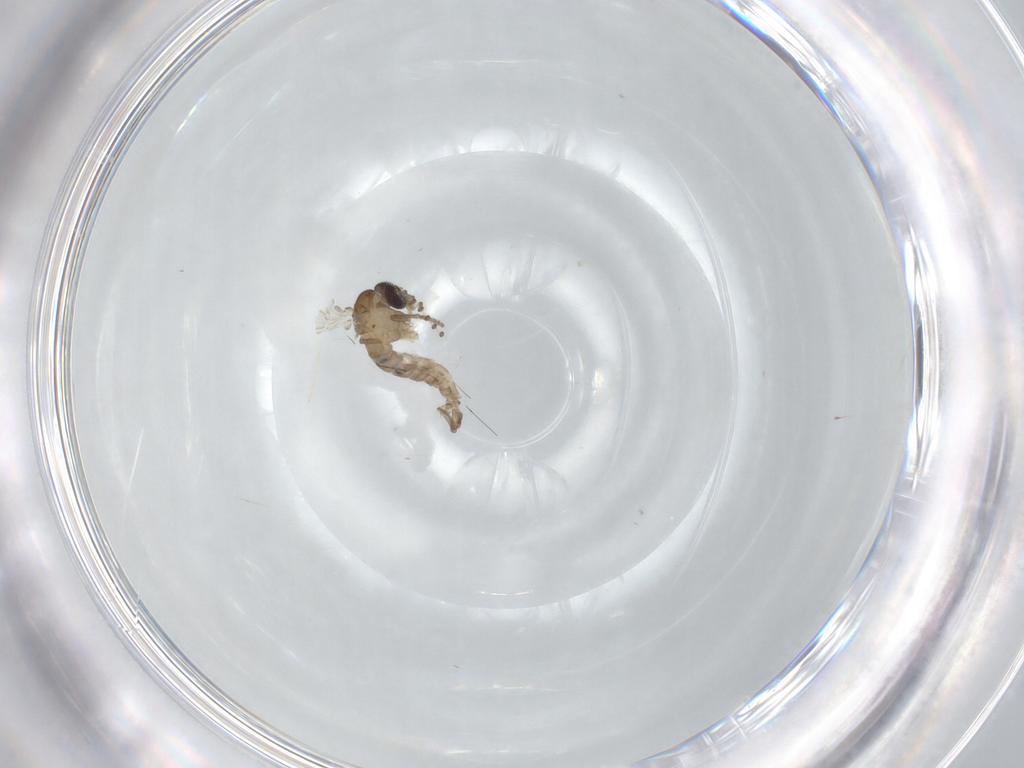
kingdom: Animalia
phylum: Arthropoda
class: Insecta
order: Diptera
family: Psychodidae
